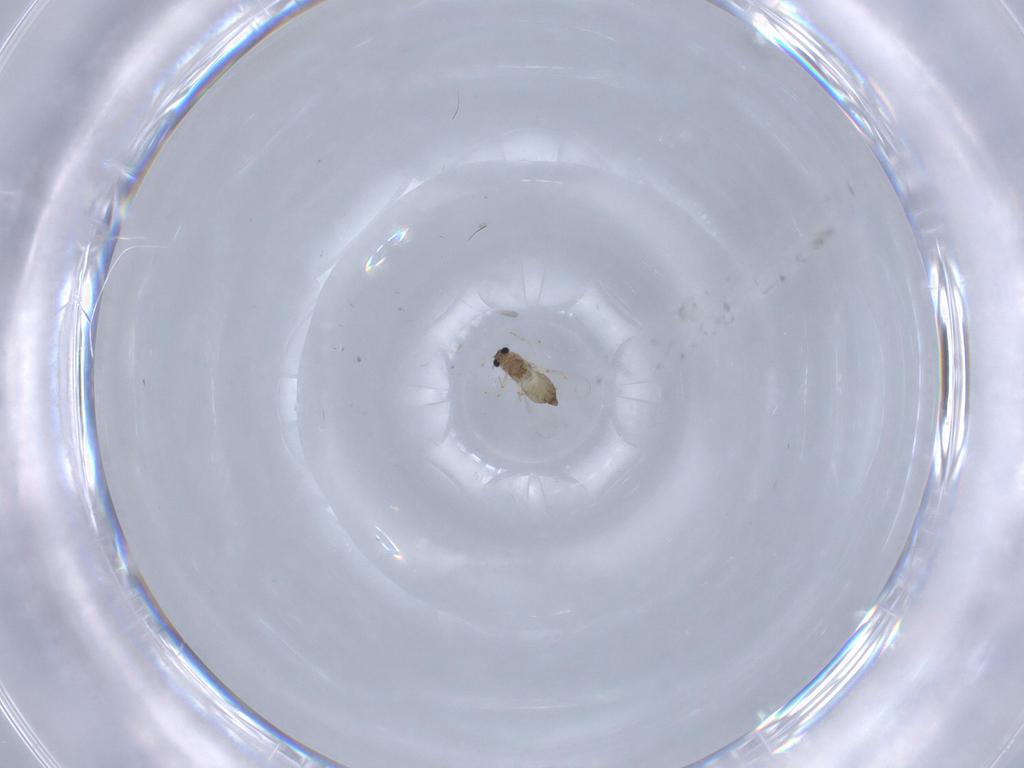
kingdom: Animalia
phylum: Arthropoda
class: Insecta
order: Diptera
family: Chironomidae
